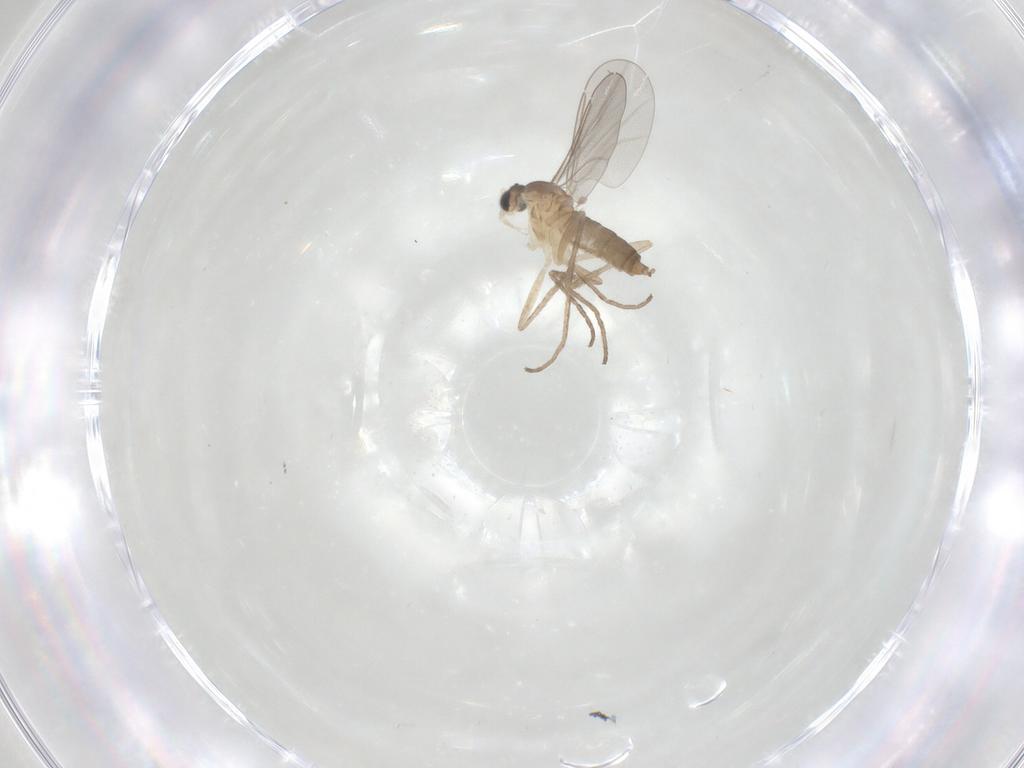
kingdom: Animalia
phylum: Arthropoda
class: Insecta
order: Diptera
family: Cecidomyiidae
